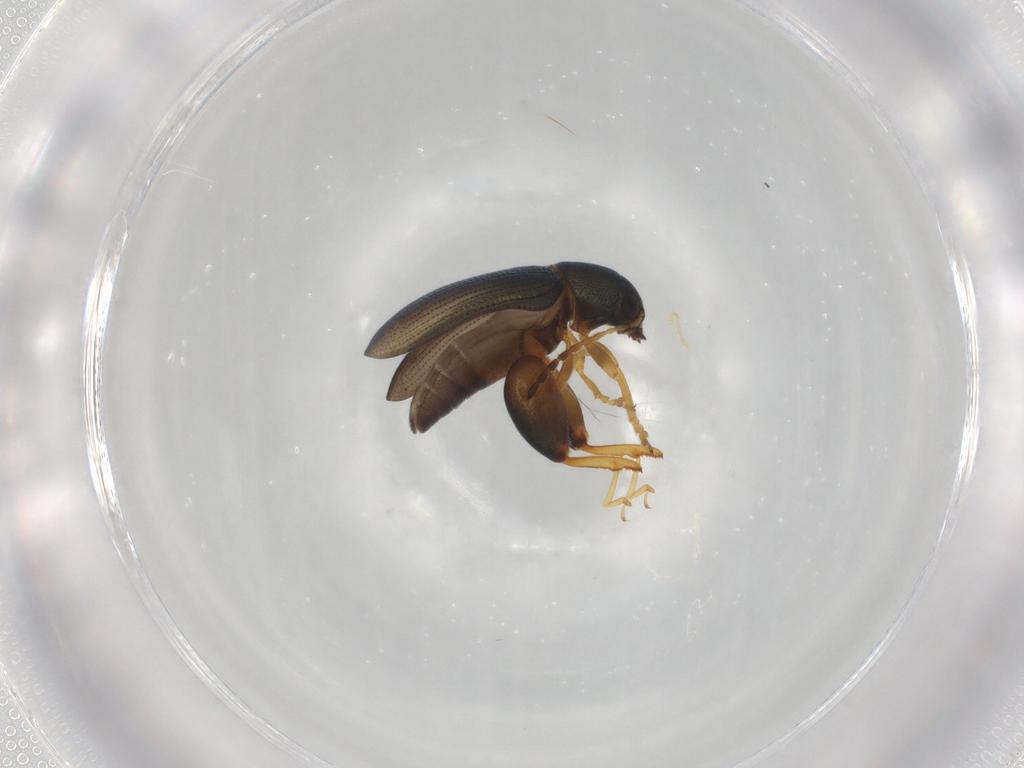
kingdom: Animalia
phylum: Arthropoda
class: Insecta
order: Coleoptera
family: Chrysomelidae
